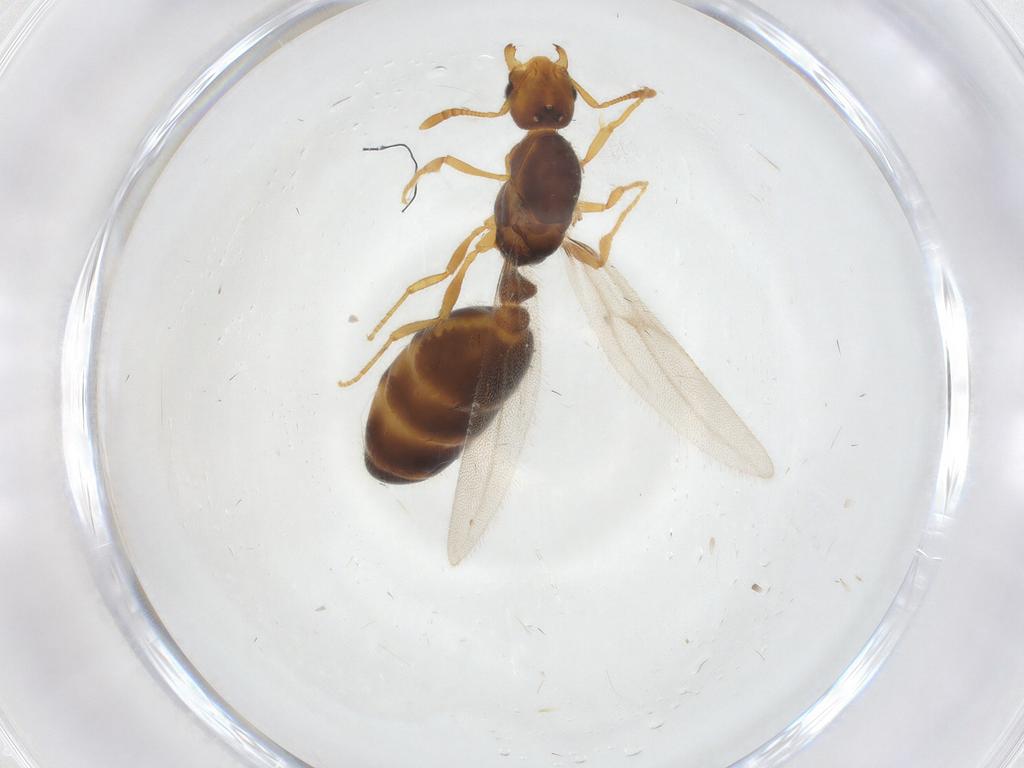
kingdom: Animalia
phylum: Arthropoda
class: Insecta
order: Hymenoptera
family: Formicidae
